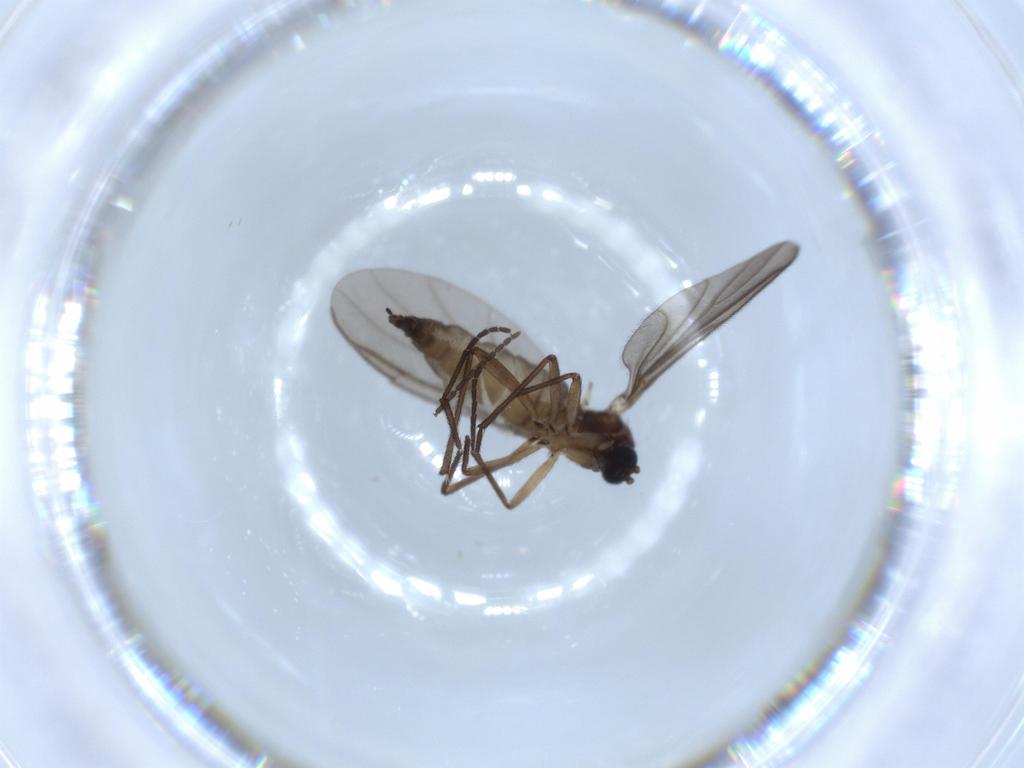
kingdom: Animalia
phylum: Arthropoda
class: Insecta
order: Diptera
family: Sciaridae
